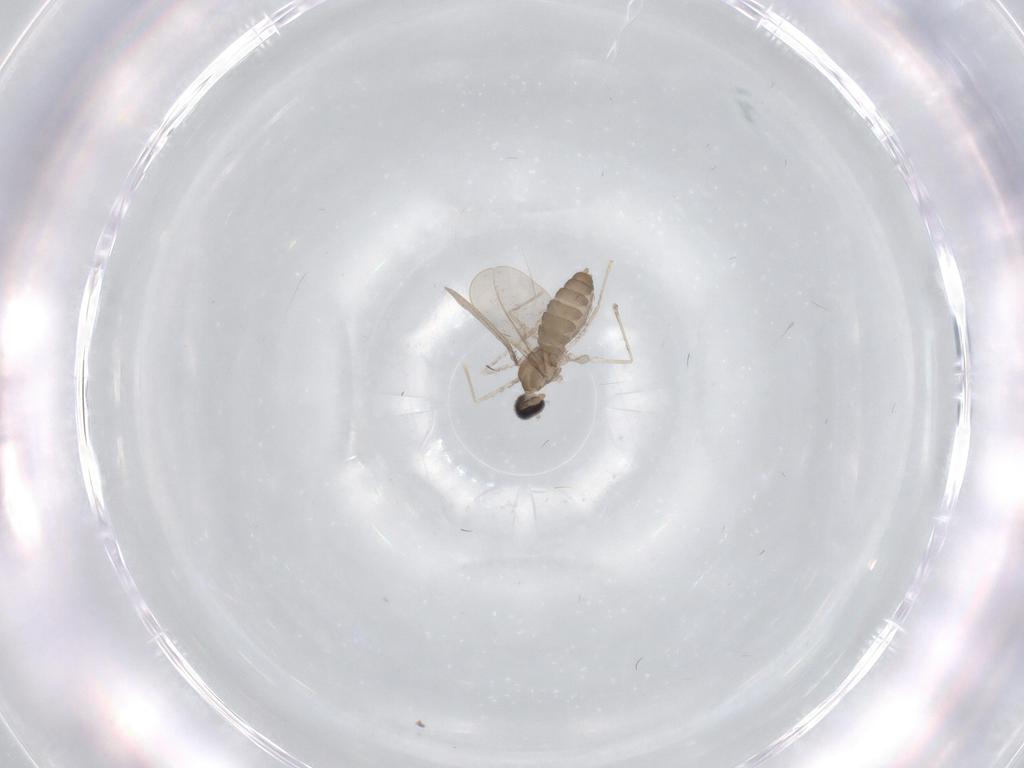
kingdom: Animalia
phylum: Arthropoda
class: Insecta
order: Diptera
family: Cecidomyiidae
